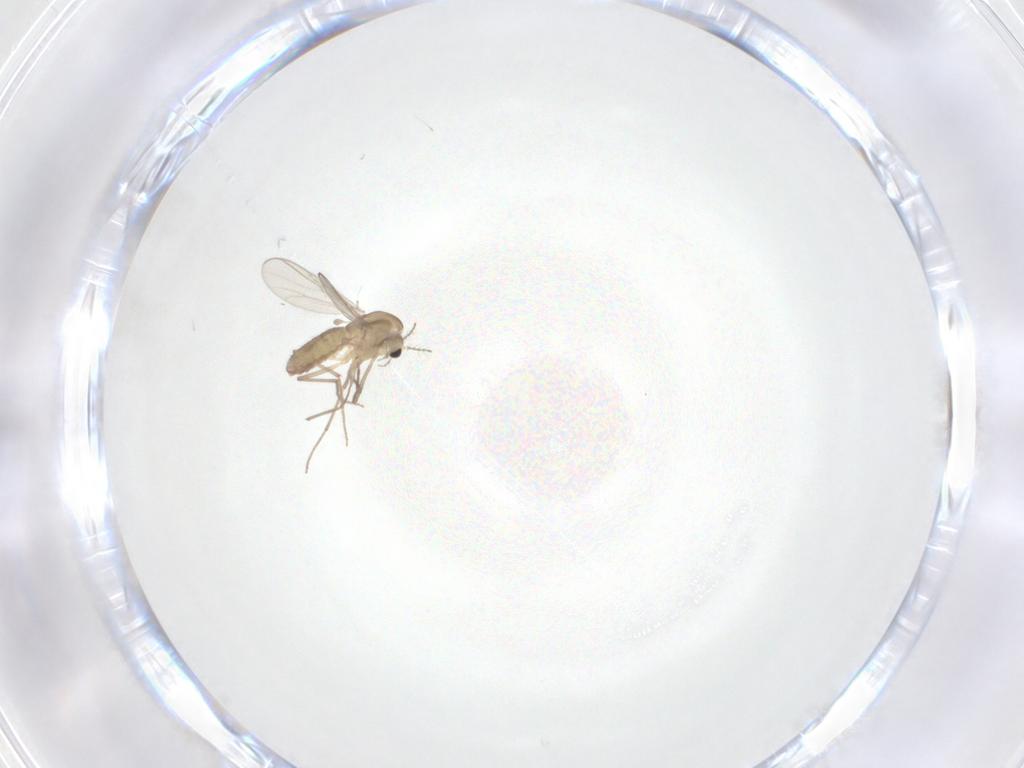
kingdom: Animalia
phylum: Arthropoda
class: Insecta
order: Diptera
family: Chironomidae
